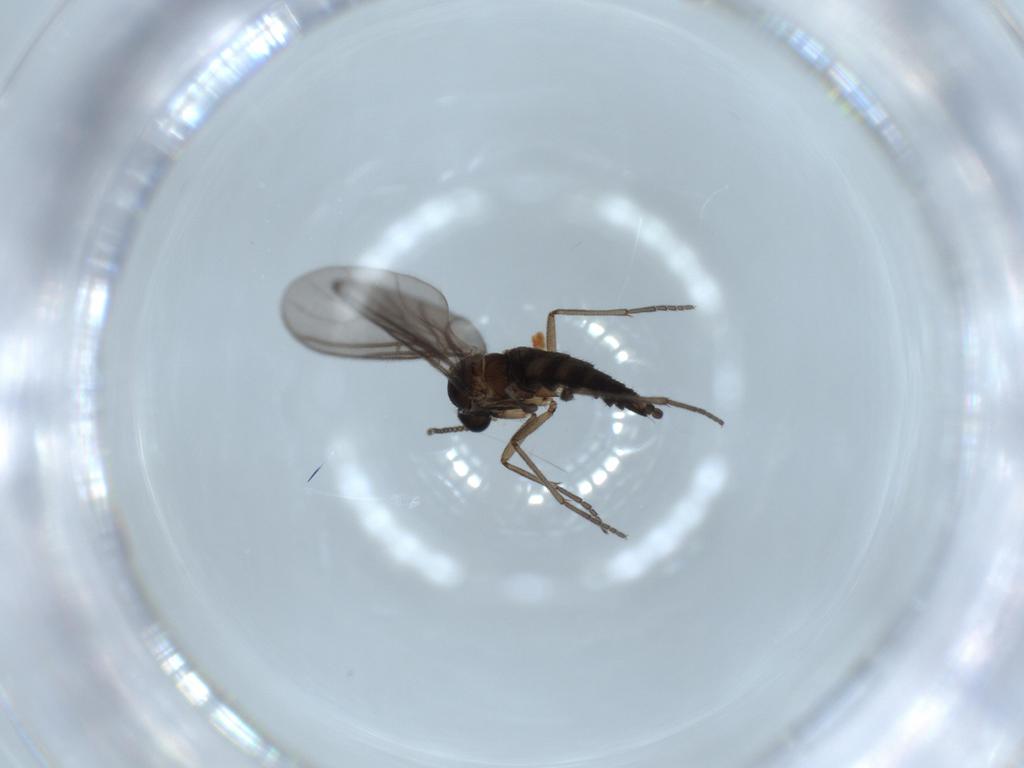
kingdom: Animalia
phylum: Arthropoda
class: Insecta
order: Diptera
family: Sciaridae
